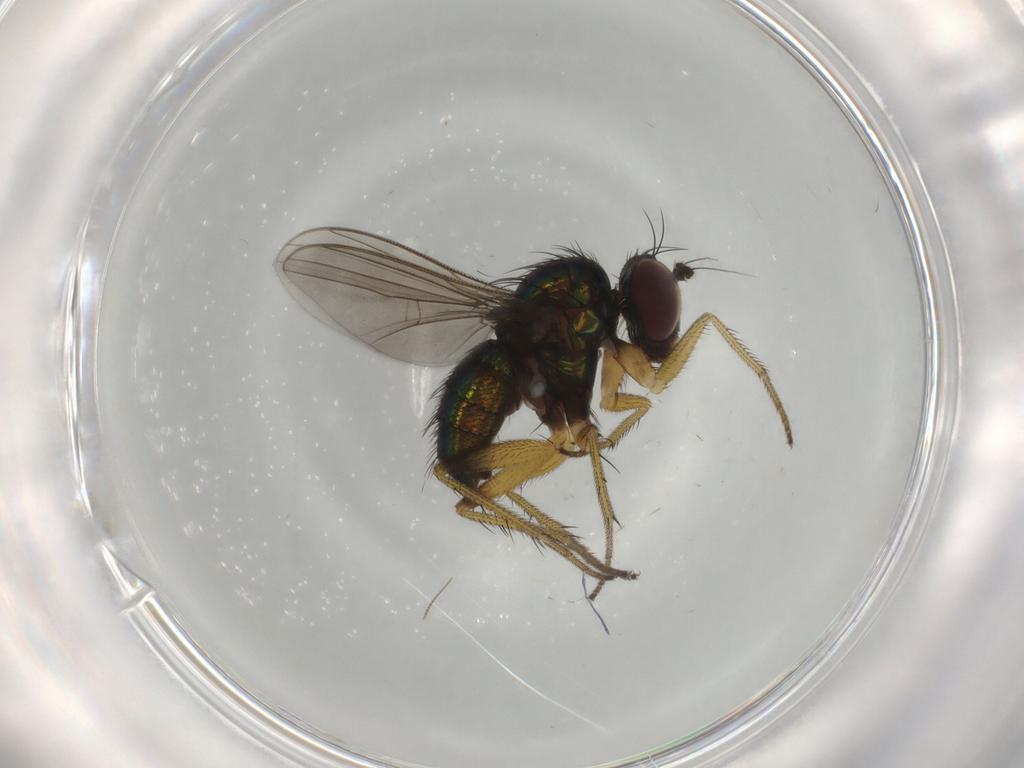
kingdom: Animalia
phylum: Arthropoda
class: Insecta
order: Diptera
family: Dolichopodidae
